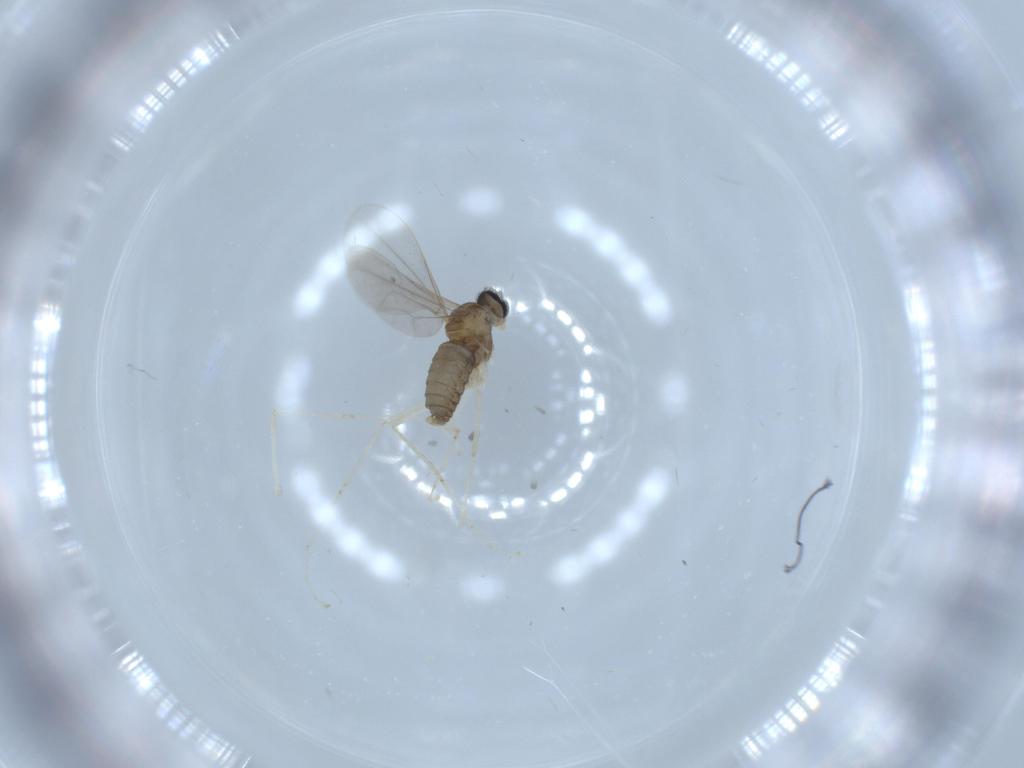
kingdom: Animalia
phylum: Arthropoda
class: Insecta
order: Diptera
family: Cecidomyiidae
